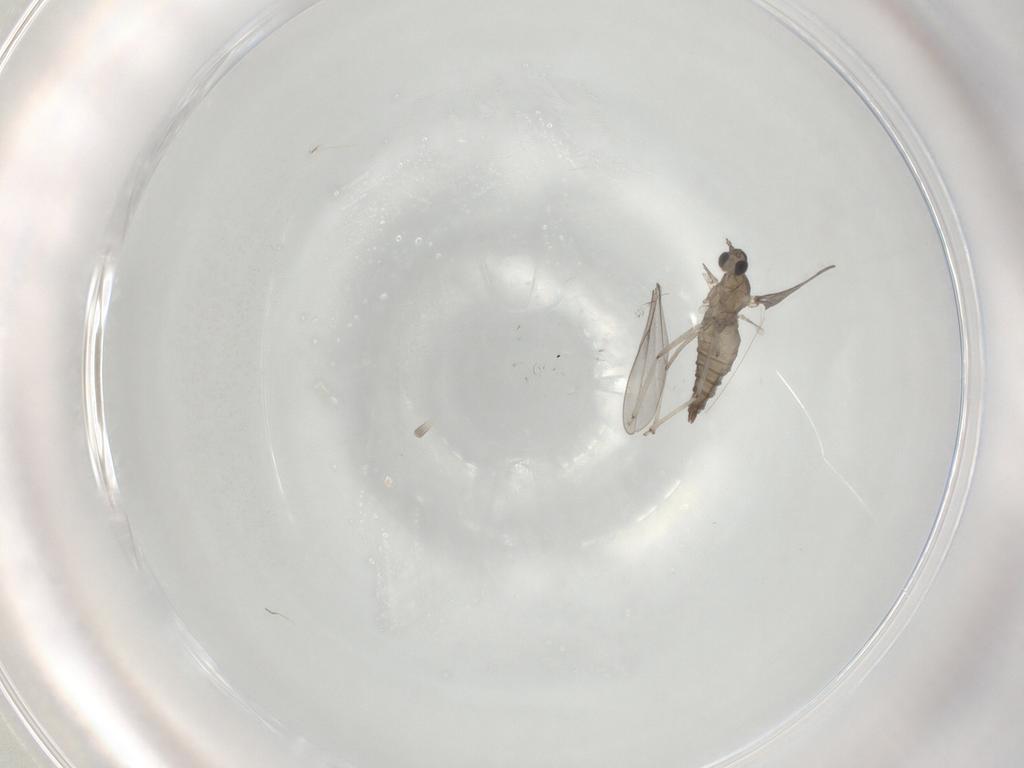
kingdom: Animalia
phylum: Arthropoda
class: Insecta
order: Diptera
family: Cecidomyiidae
